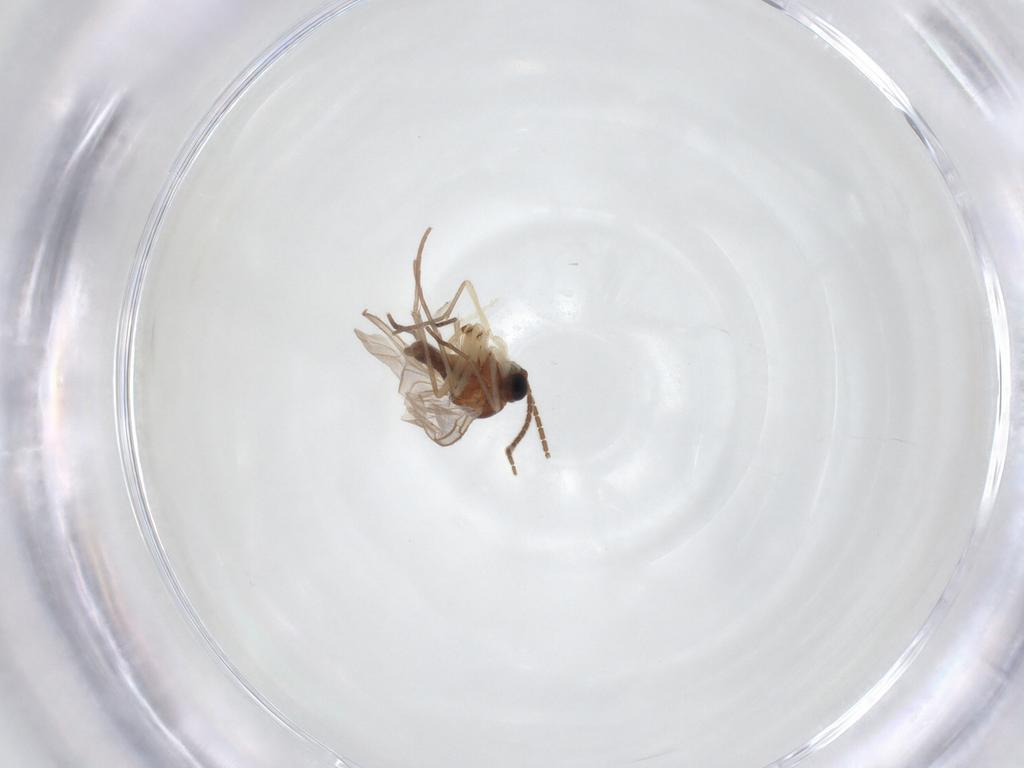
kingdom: Animalia
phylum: Arthropoda
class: Insecta
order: Diptera
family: Sciaridae
